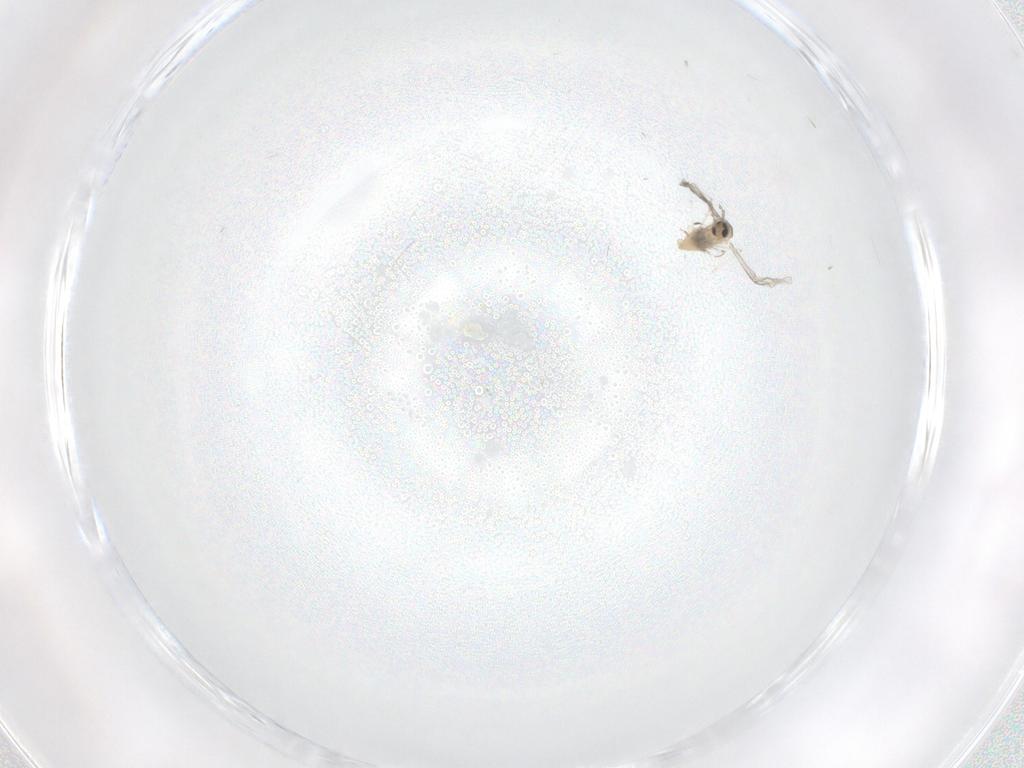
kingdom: Animalia
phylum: Arthropoda
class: Insecta
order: Diptera
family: Cecidomyiidae
